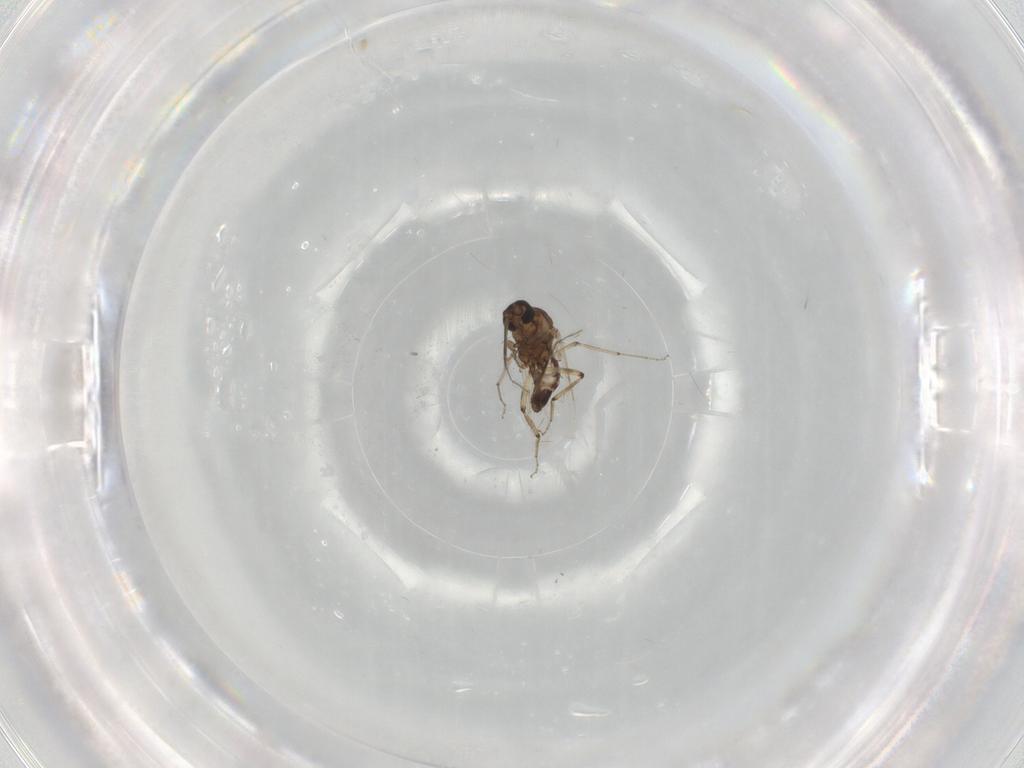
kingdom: Animalia
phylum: Arthropoda
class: Insecta
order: Diptera
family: Ceratopogonidae
